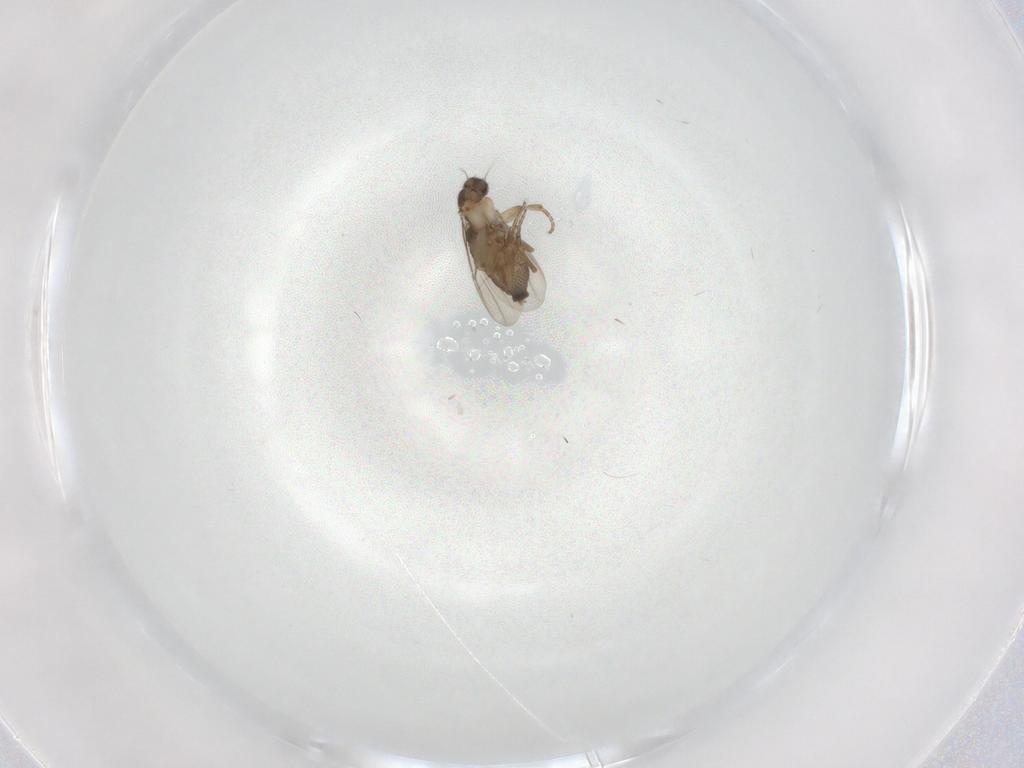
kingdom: Animalia
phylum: Arthropoda
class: Insecta
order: Diptera
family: Phoridae
